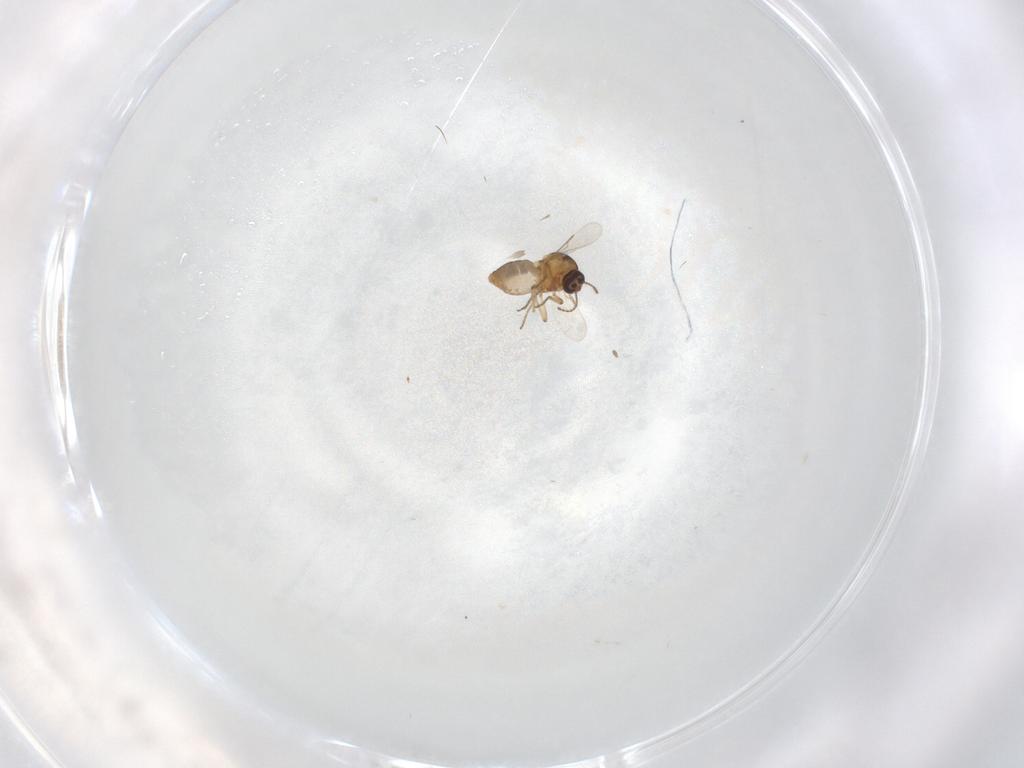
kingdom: Animalia
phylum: Arthropoda
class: Insecta
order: Diptera
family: Ceratopogonidae
